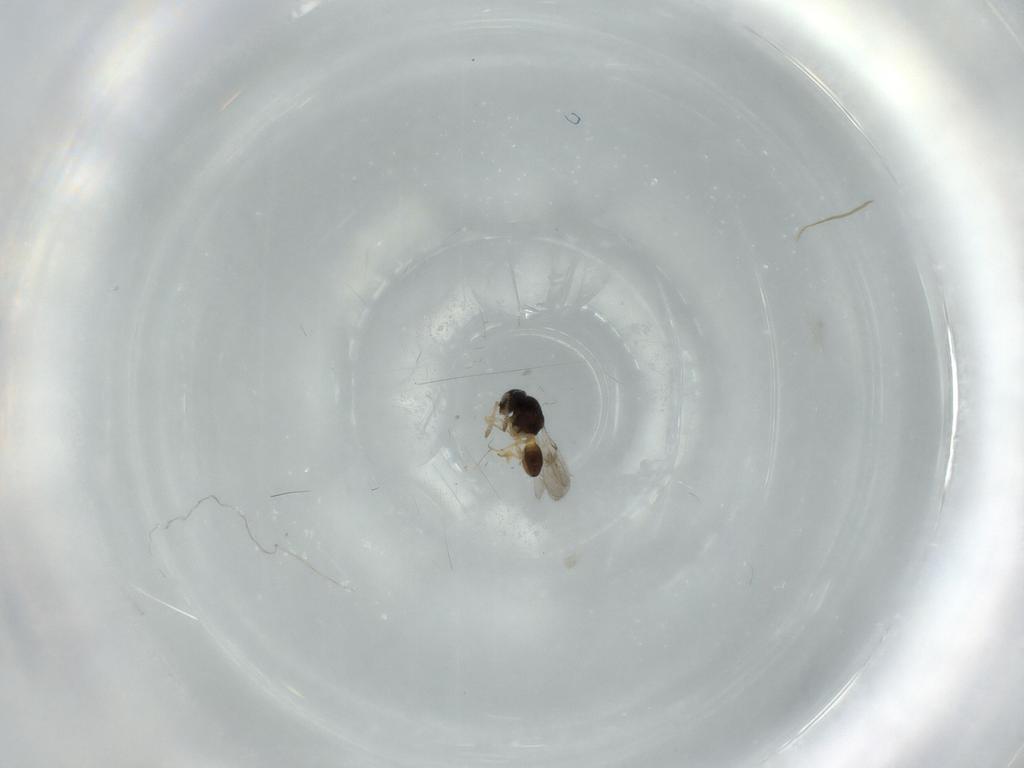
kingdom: Animalia
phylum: Arthropoda
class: Insecta
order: Hymenoptera
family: Scelionidae
